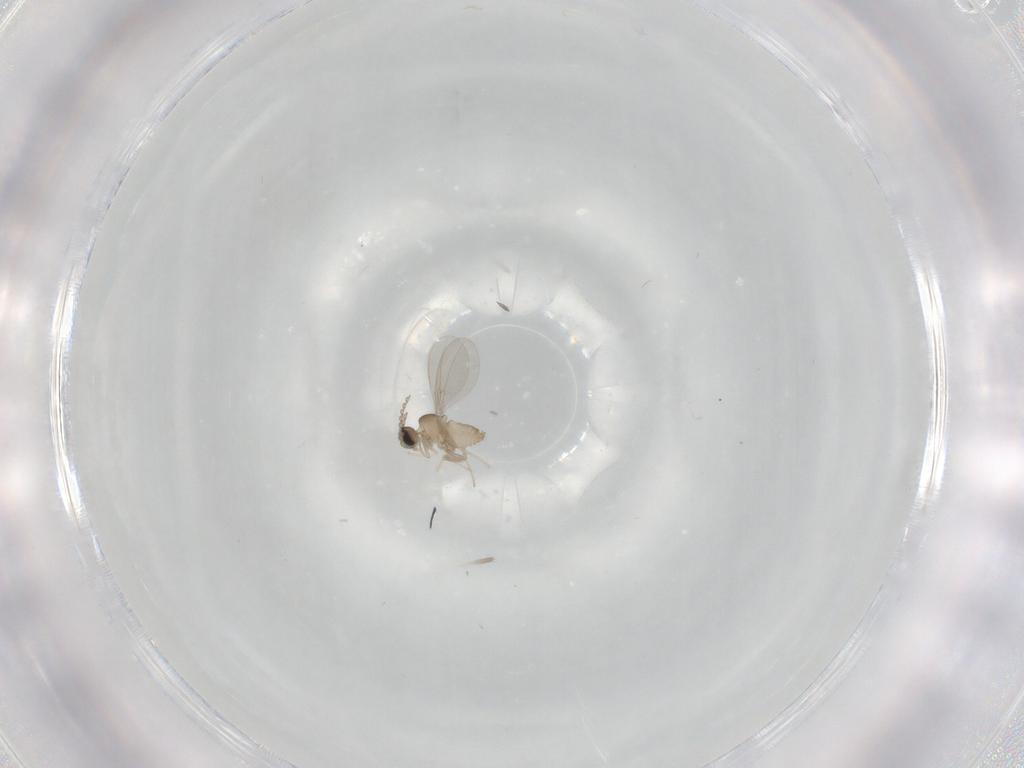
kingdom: Animalia
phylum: Arthropoda
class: Insecta
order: Diptera
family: Cecidomyiidae
